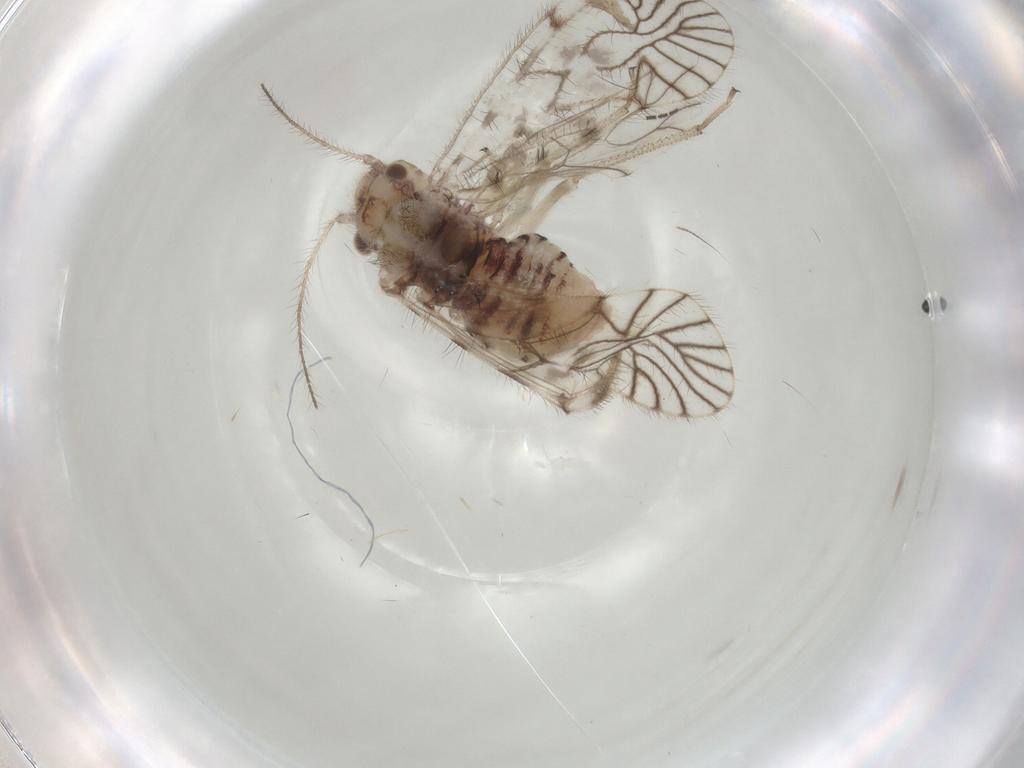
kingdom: Animalia
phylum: Arthropoda
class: Insecta
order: Psocodea
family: Amphipsocidae
